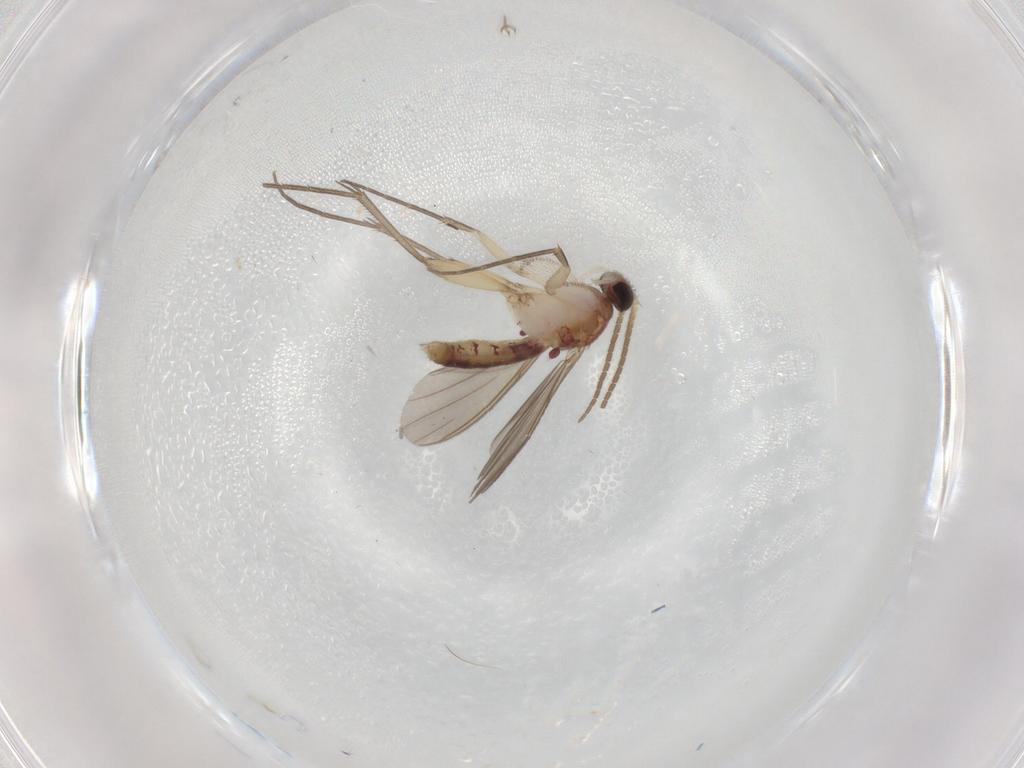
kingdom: Animalia
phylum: Arthropoda
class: Insecta
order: Diptera
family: Mycetophilidae
